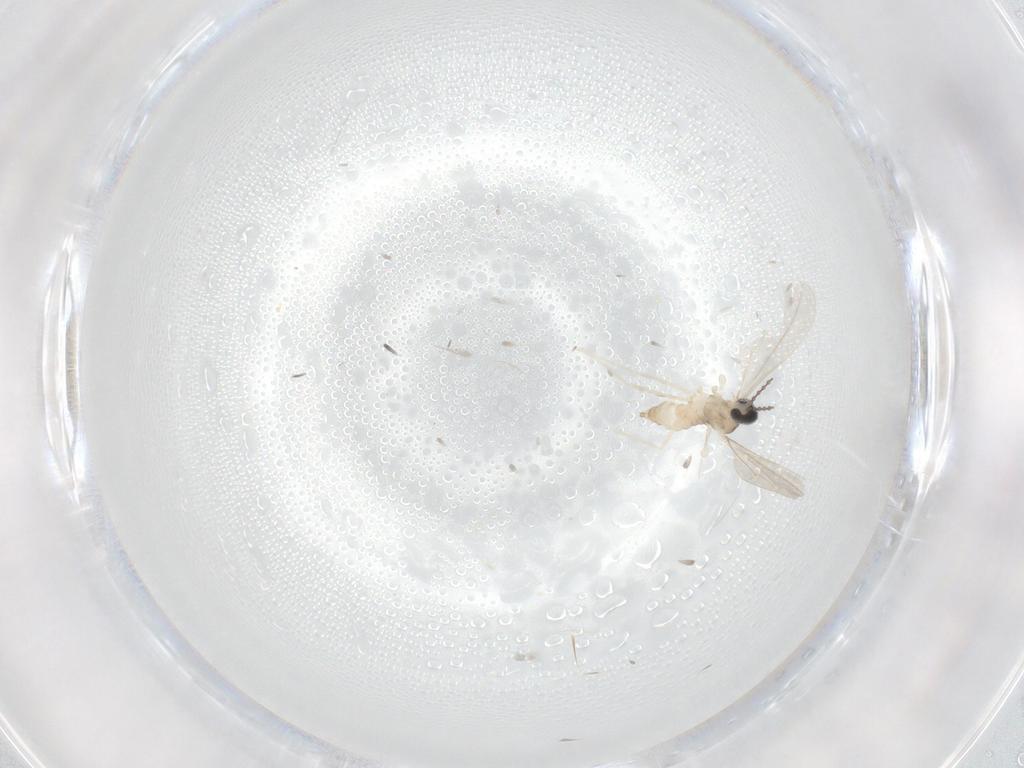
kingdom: Animalia
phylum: Arthropoda
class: Insecta
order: Diptera
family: Cecidomyiidae
